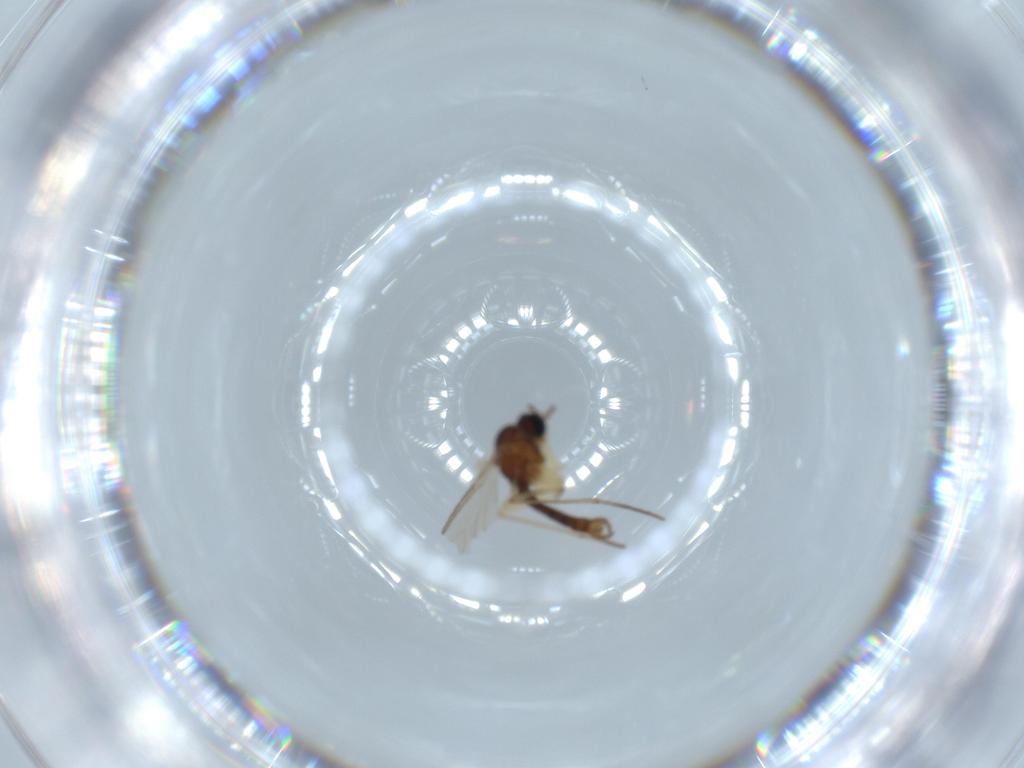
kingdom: Animalia
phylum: Arthropoda
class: Insecta
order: Diptera
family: Sciaridae
